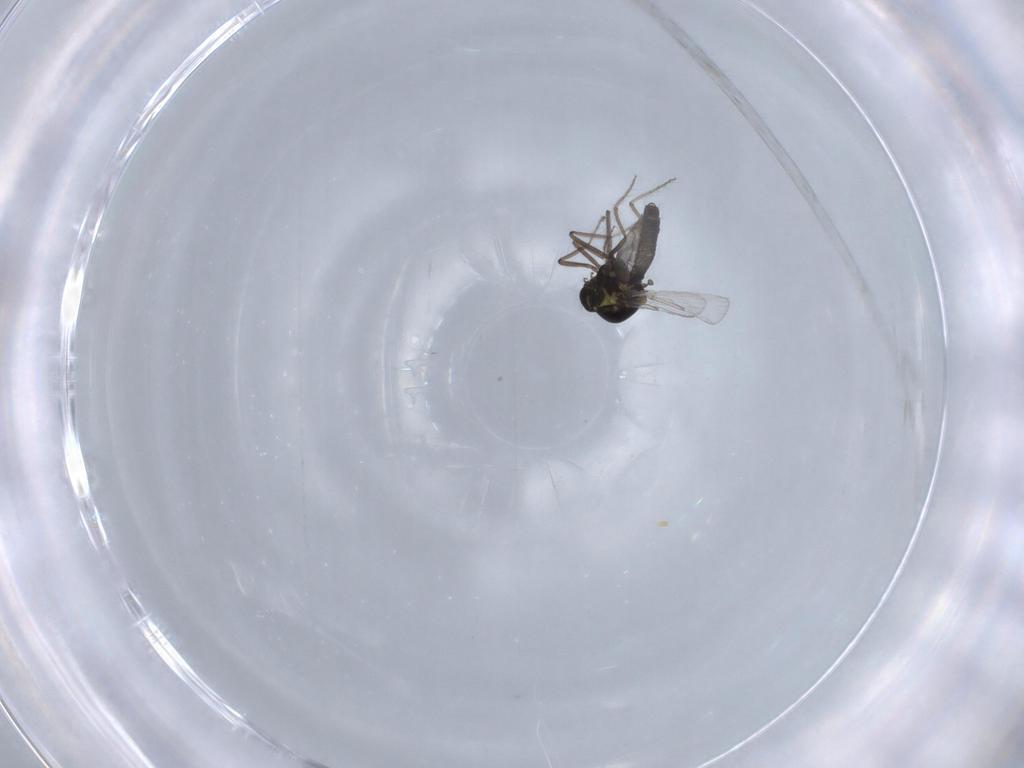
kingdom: Animalia
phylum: Arthropoda
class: Insecta
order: Diptera
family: Ceratopogonidae
